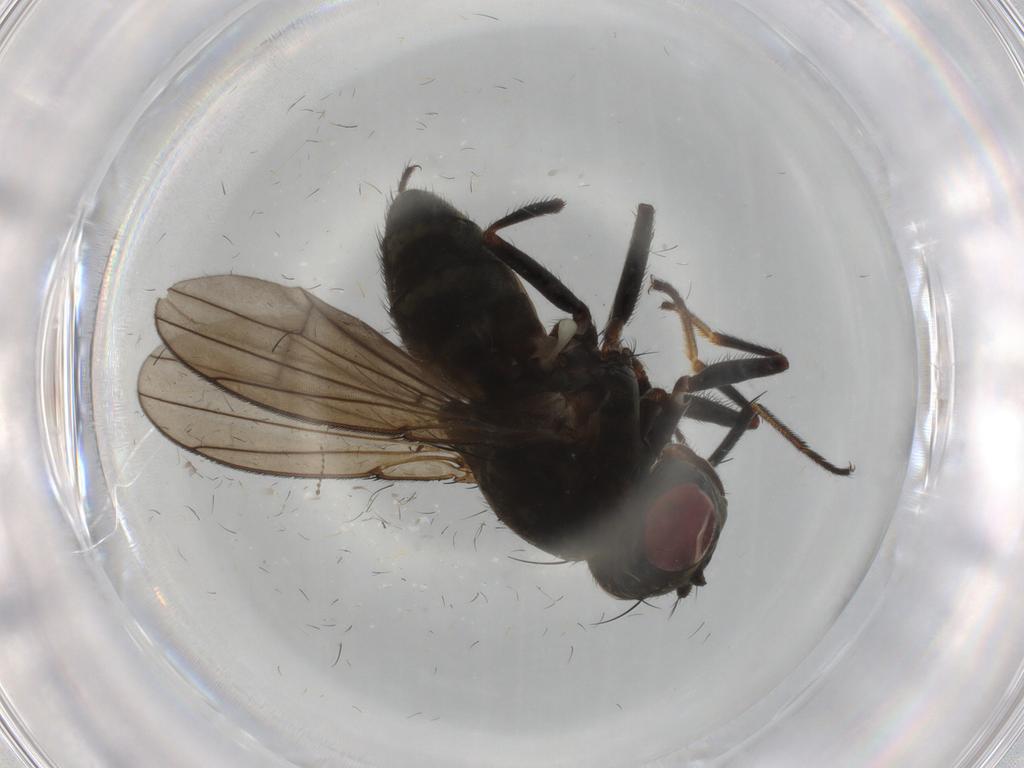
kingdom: Animalia
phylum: Arthropoda
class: Insecta
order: Diptera
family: Ephydridae
